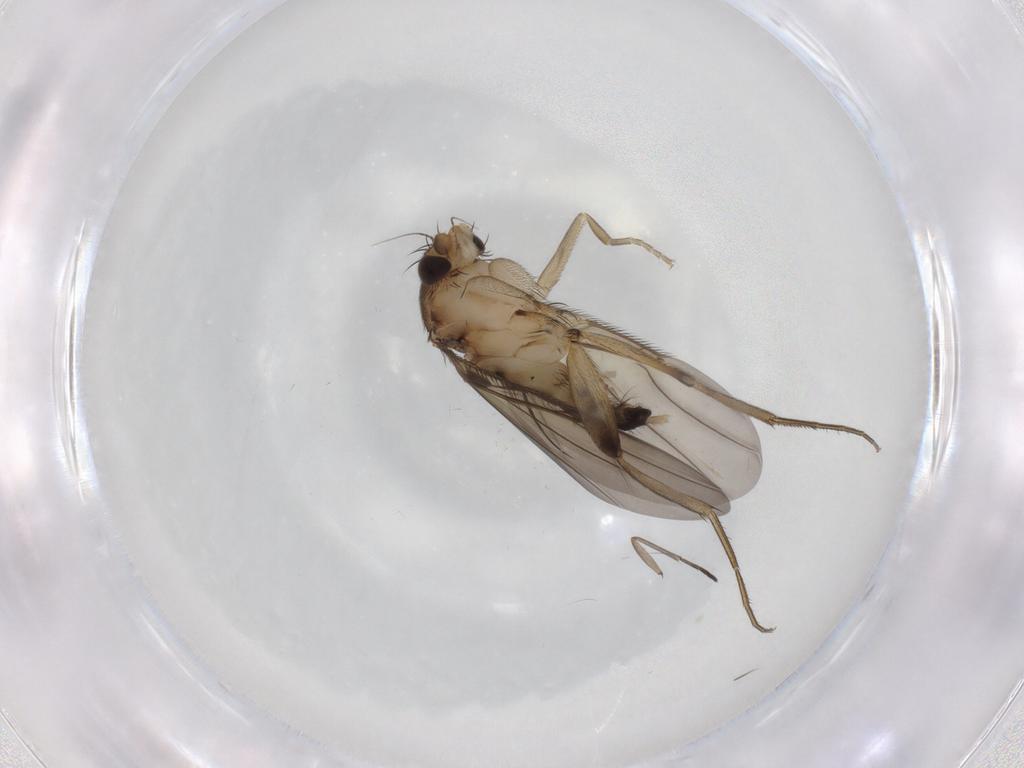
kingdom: Animalia
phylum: Arthropoda
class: Insecta
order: Diptera
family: Phoridae
